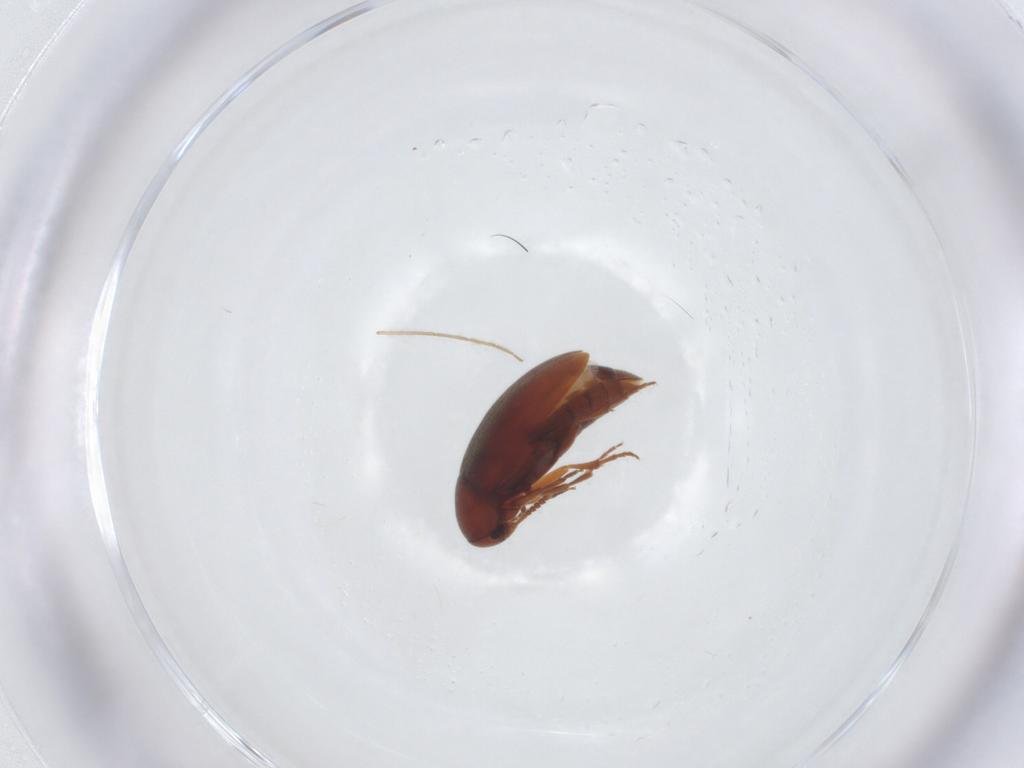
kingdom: Animalia
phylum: Arthropoda
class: Insecta
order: Coleoptera
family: Scraptiidae
